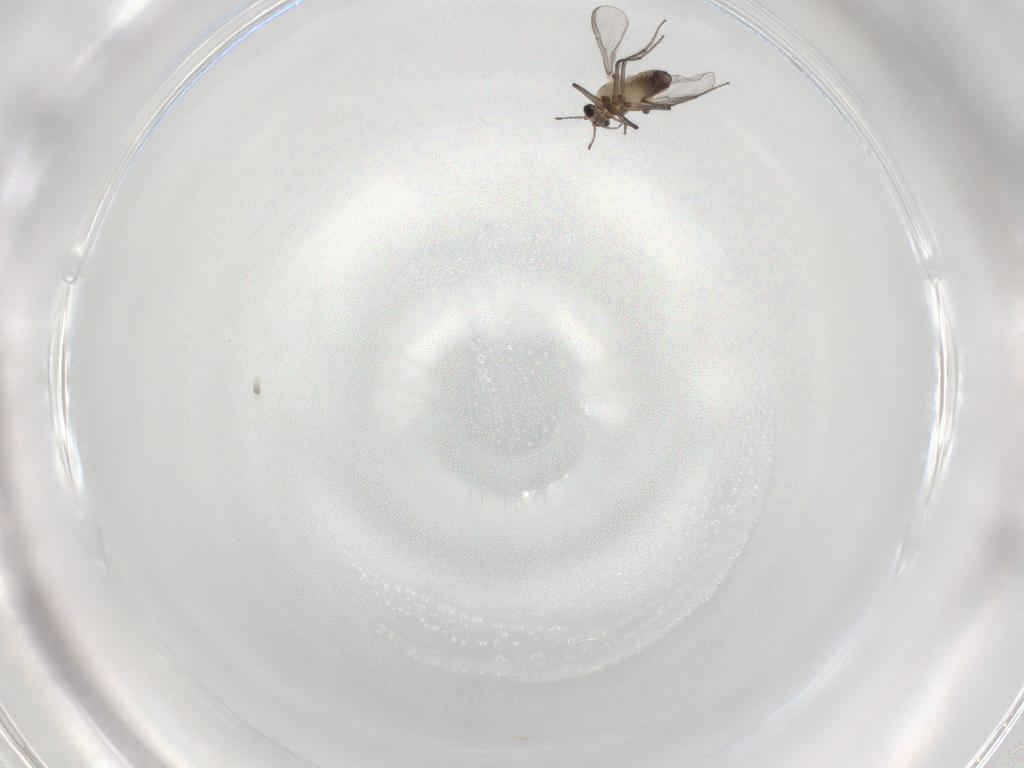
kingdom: Animalia
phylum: Arthropoda
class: Insecta
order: Diptera
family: Chironomidae
